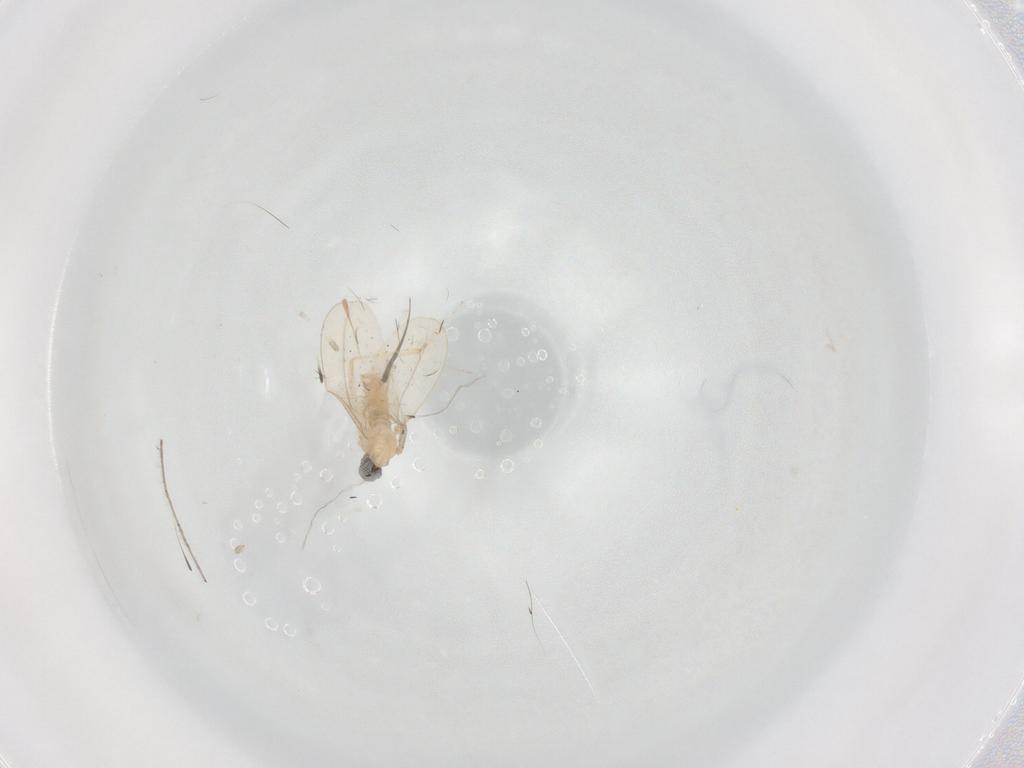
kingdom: Animalia
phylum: Arthropoda
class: Insecta
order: Diptera
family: Cecidomyiidae
